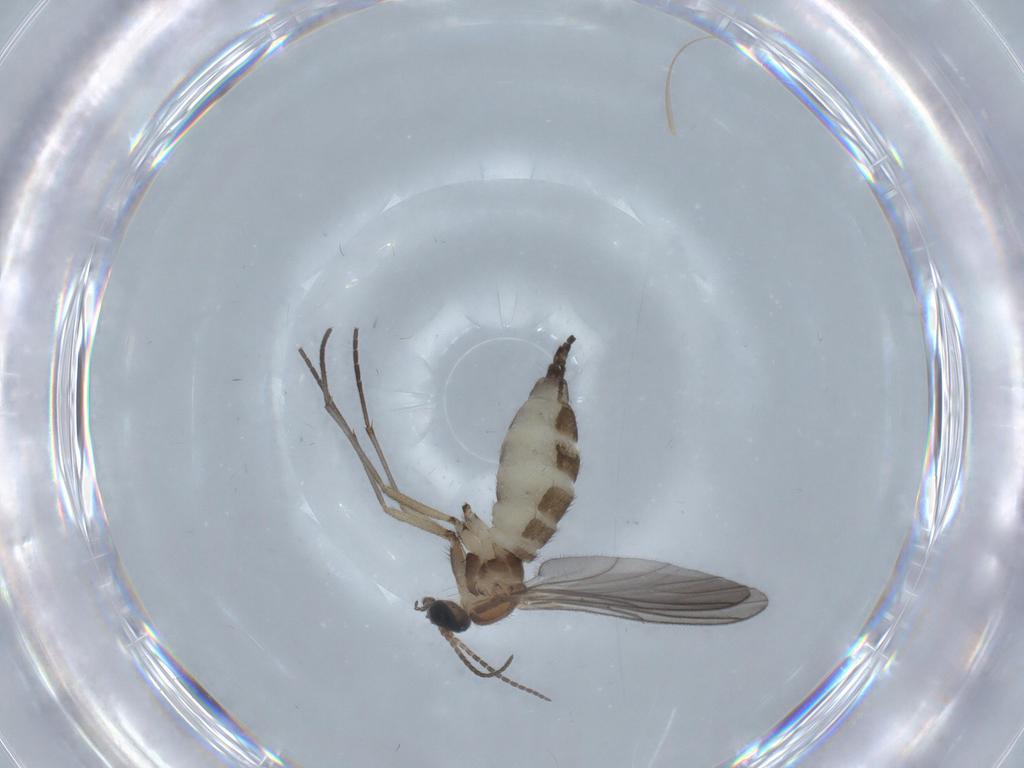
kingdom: Animalia
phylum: Arthropoda
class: Insecta
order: Diptera
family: Sciaridae
